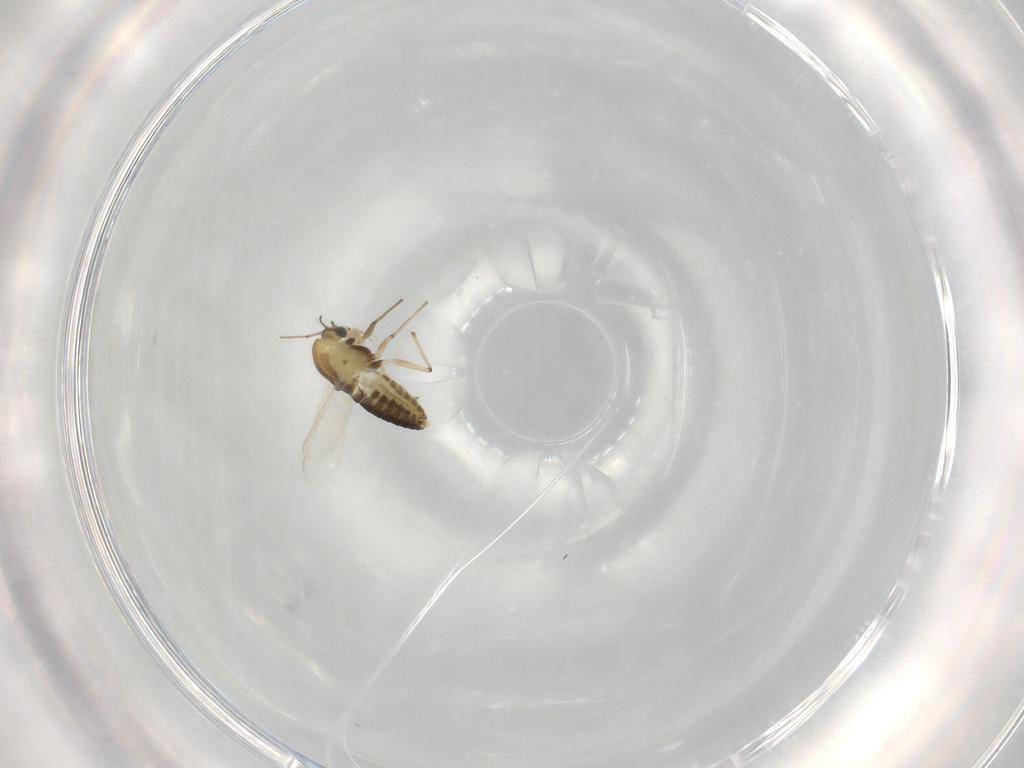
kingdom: Animalia
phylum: Arthropoda
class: Insecta
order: Diptera
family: Chironomidae
